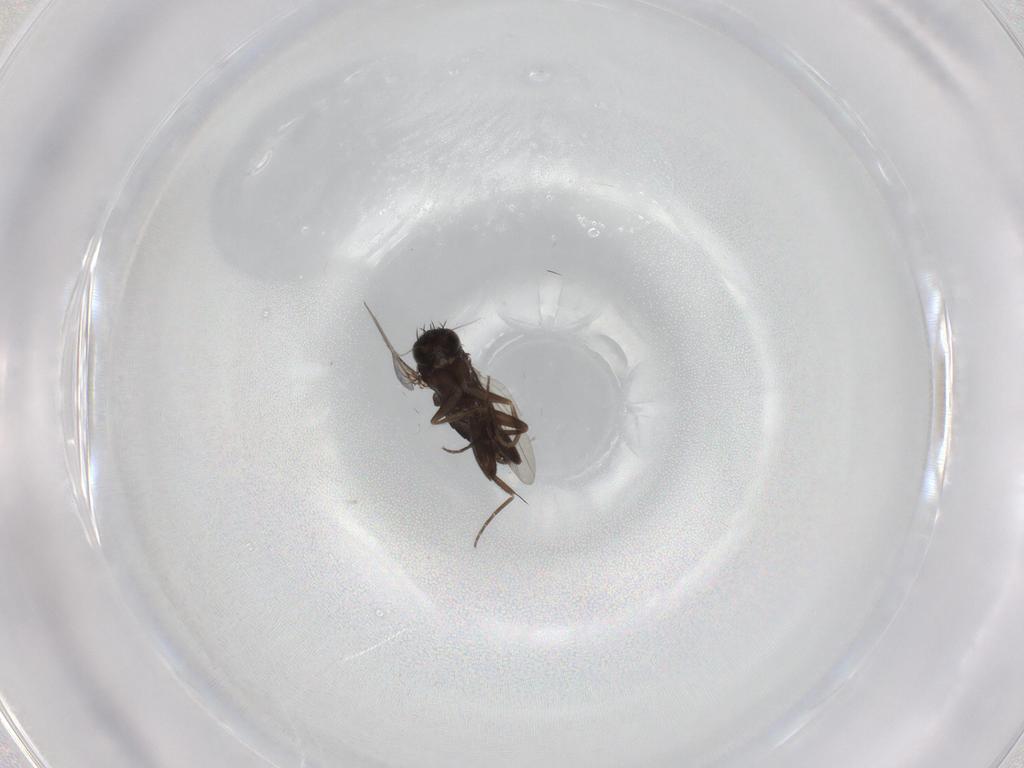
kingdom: Animalia
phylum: Arthropoda
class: Insecta
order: Diptera
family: Phoridae
